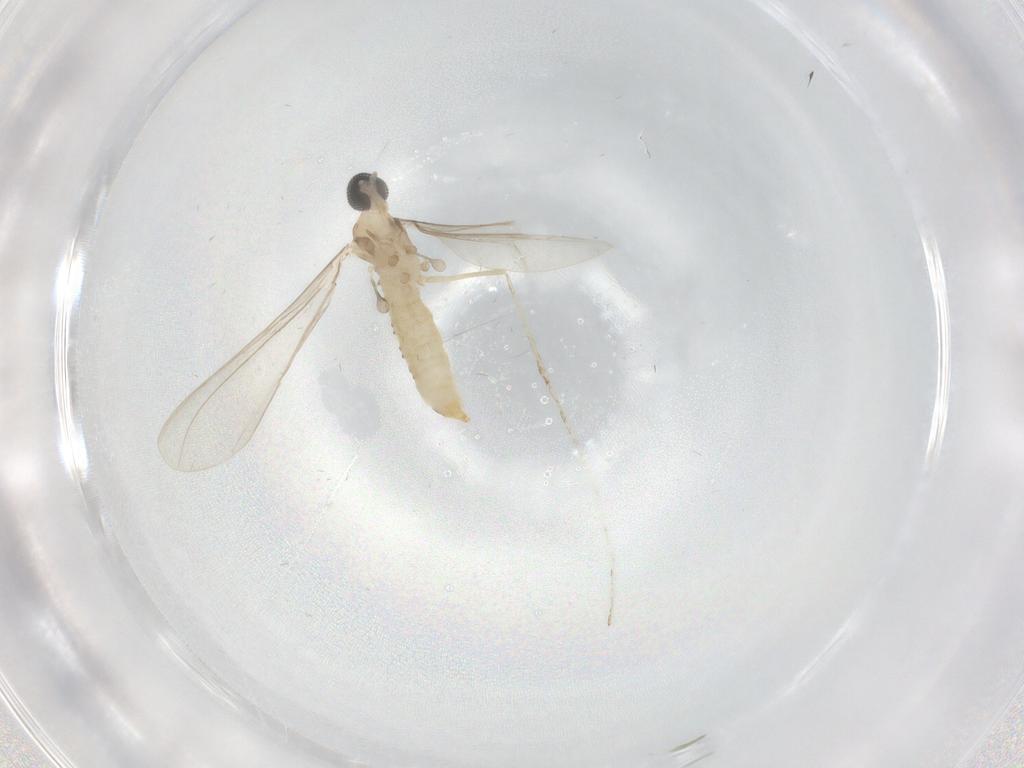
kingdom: Animalia
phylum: Arthropoda
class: Insecta
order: Diptera
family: Cecidomyiidae
